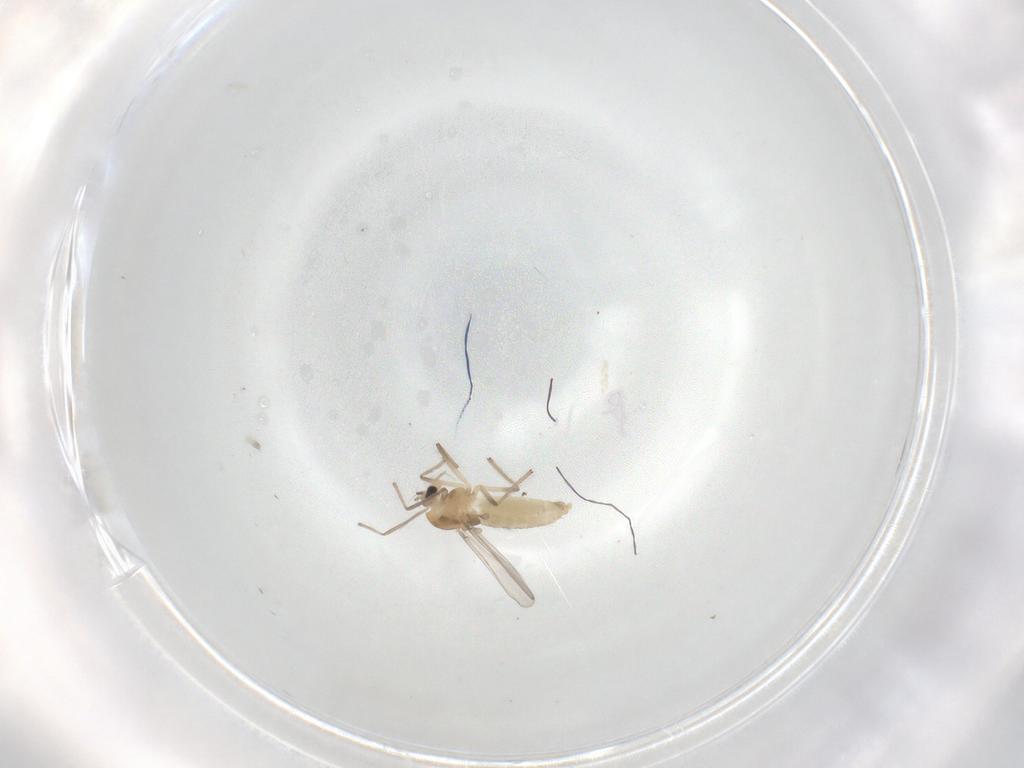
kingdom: Animalia
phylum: Arthropoda
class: Insecta
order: Diptera
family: Chironomidae
